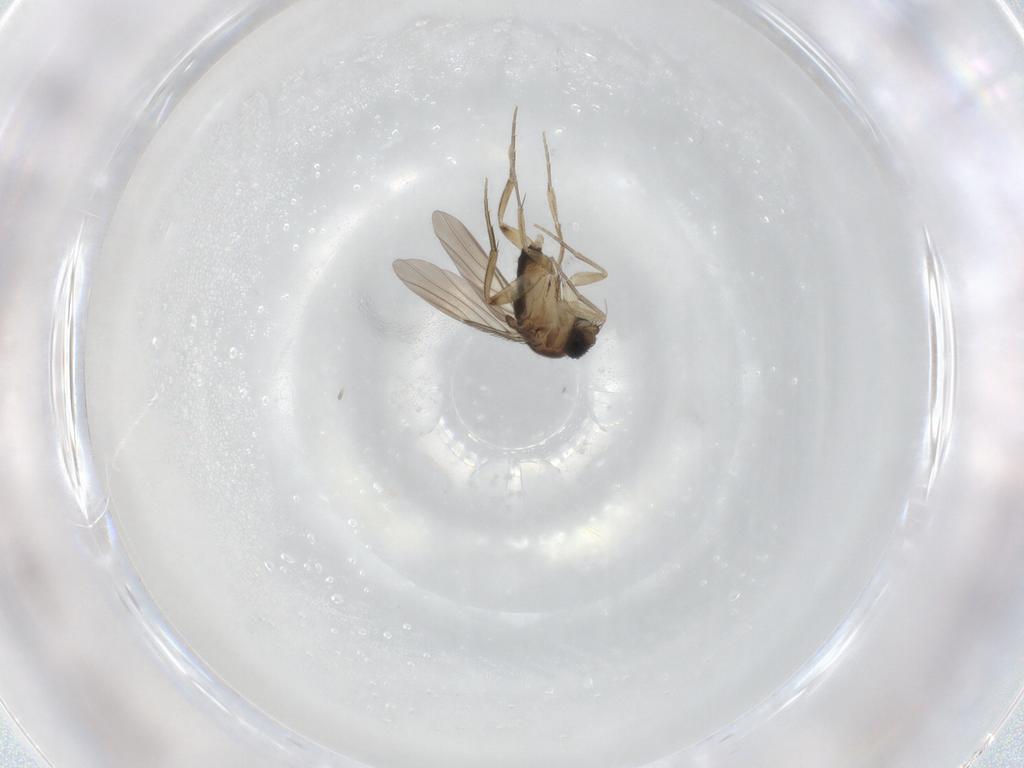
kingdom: Animalia
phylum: Arthropoda
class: Insecta
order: Diptera
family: Phoridae
